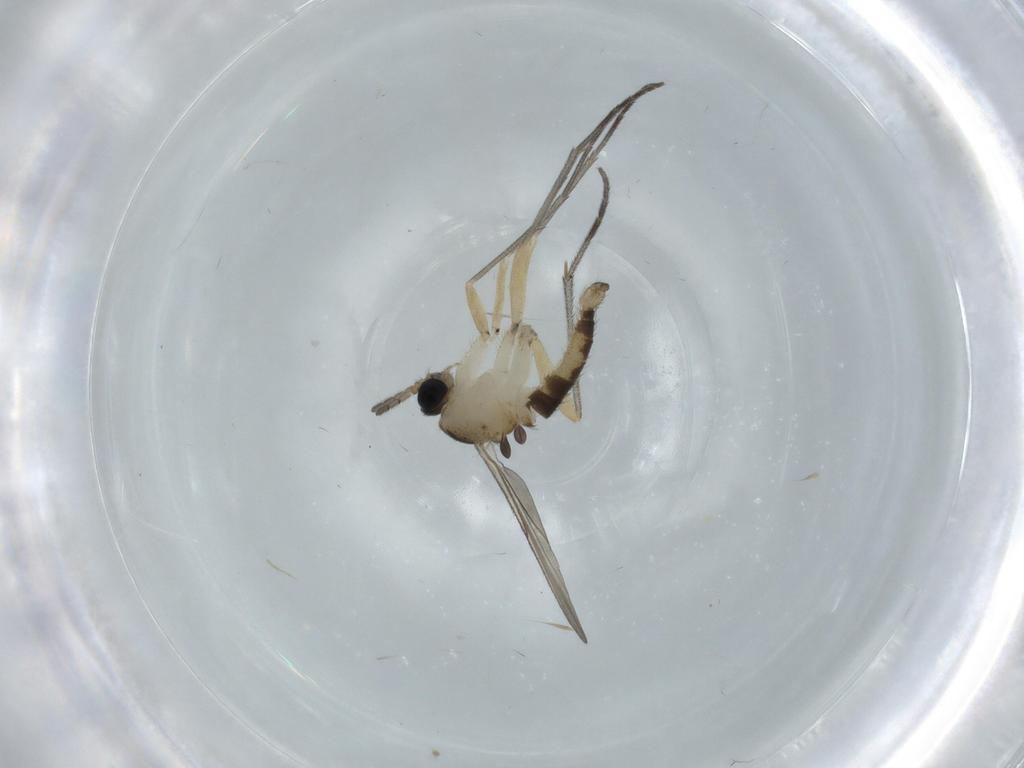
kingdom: Animalia
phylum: Arthropoda
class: Insecta
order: Diptera
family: Sciaridae
